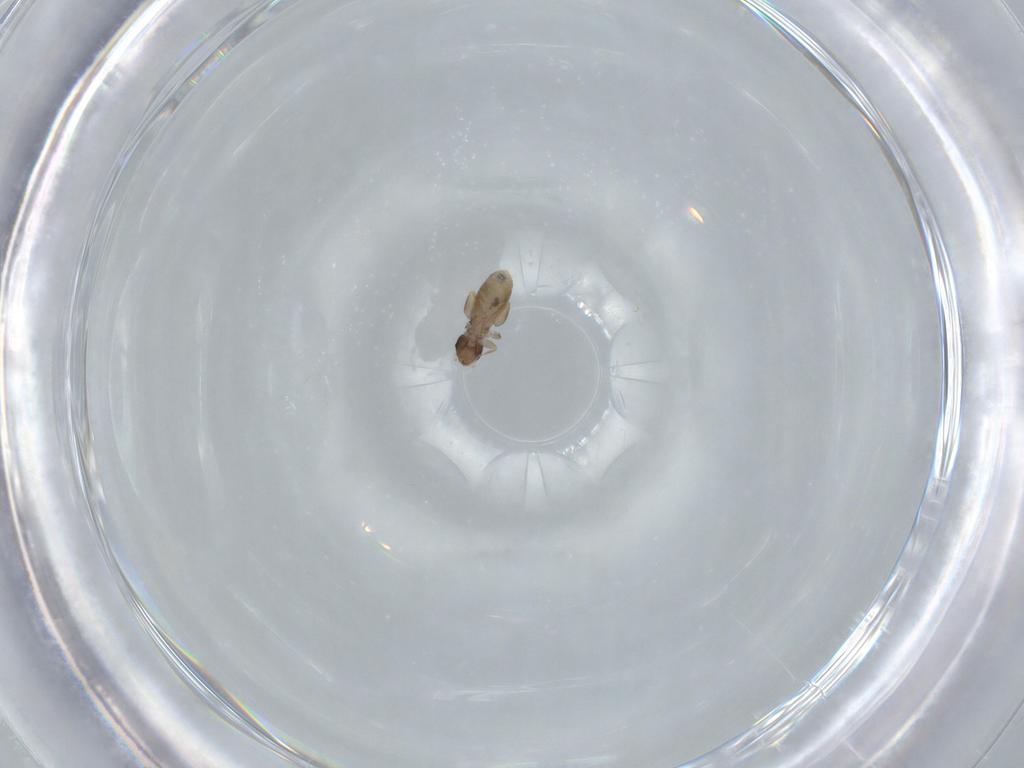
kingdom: Animalia
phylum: Arthropoda
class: Insecta
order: Psocodea
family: Liposcelididae
